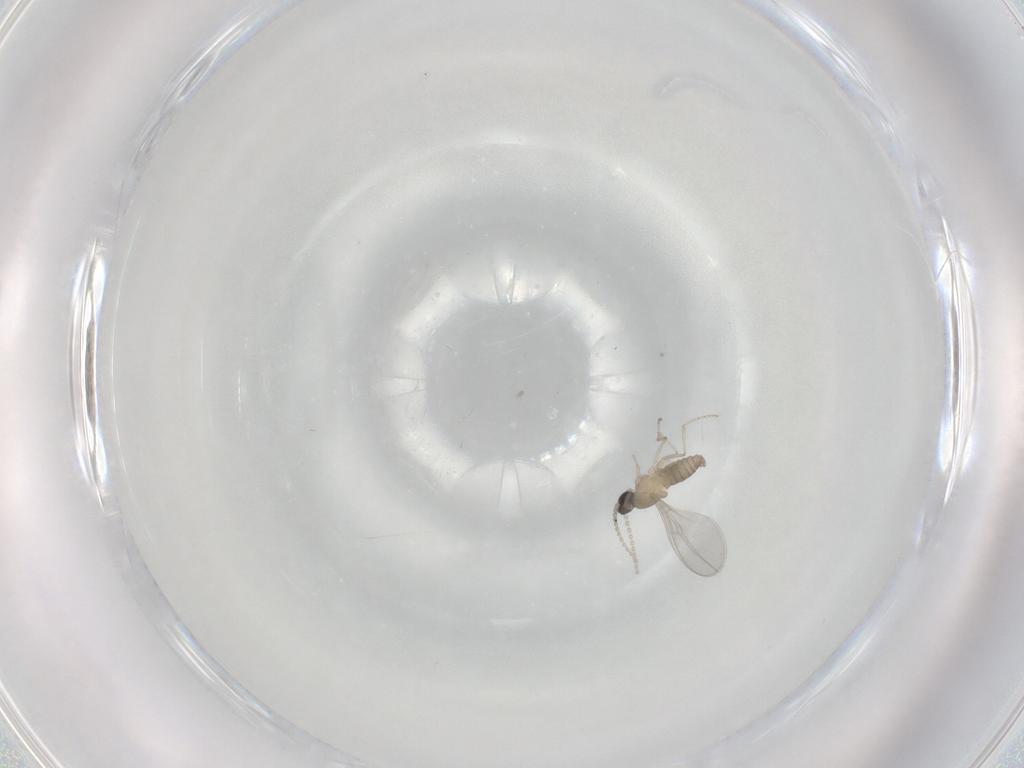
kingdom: Animalia
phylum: Arthropoda
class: Insecta
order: Diptera
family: Cecidomyiidae
